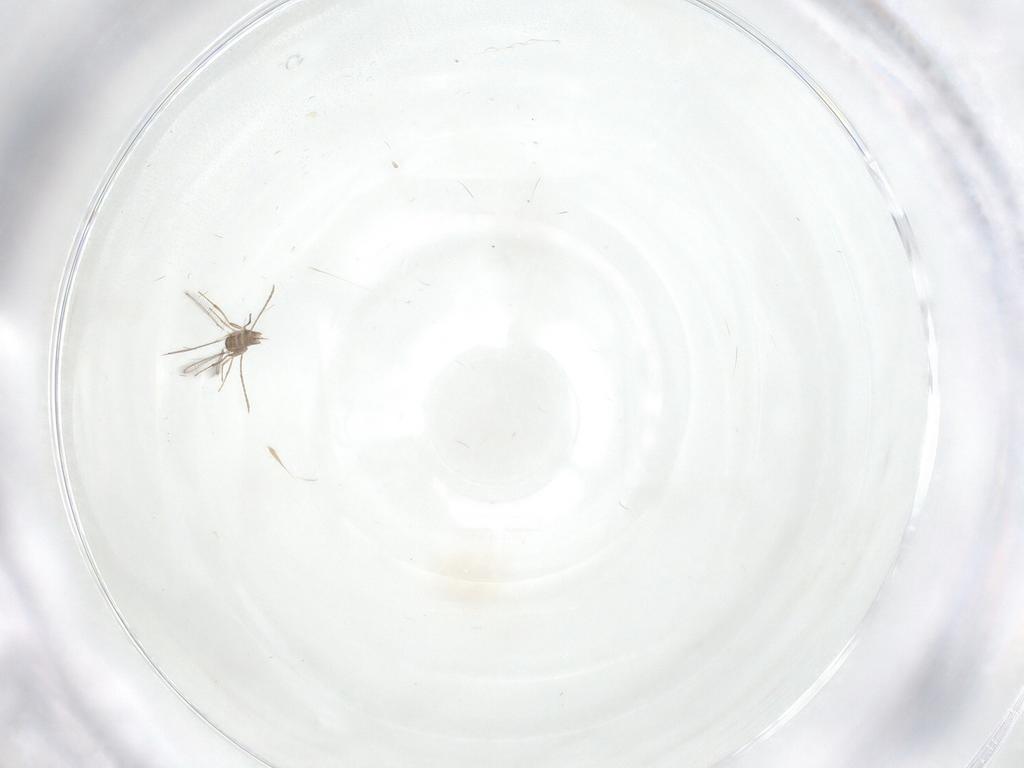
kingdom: Animalia
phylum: Arthropoda
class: Insecta
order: Hymenoptera
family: Mymaridae
